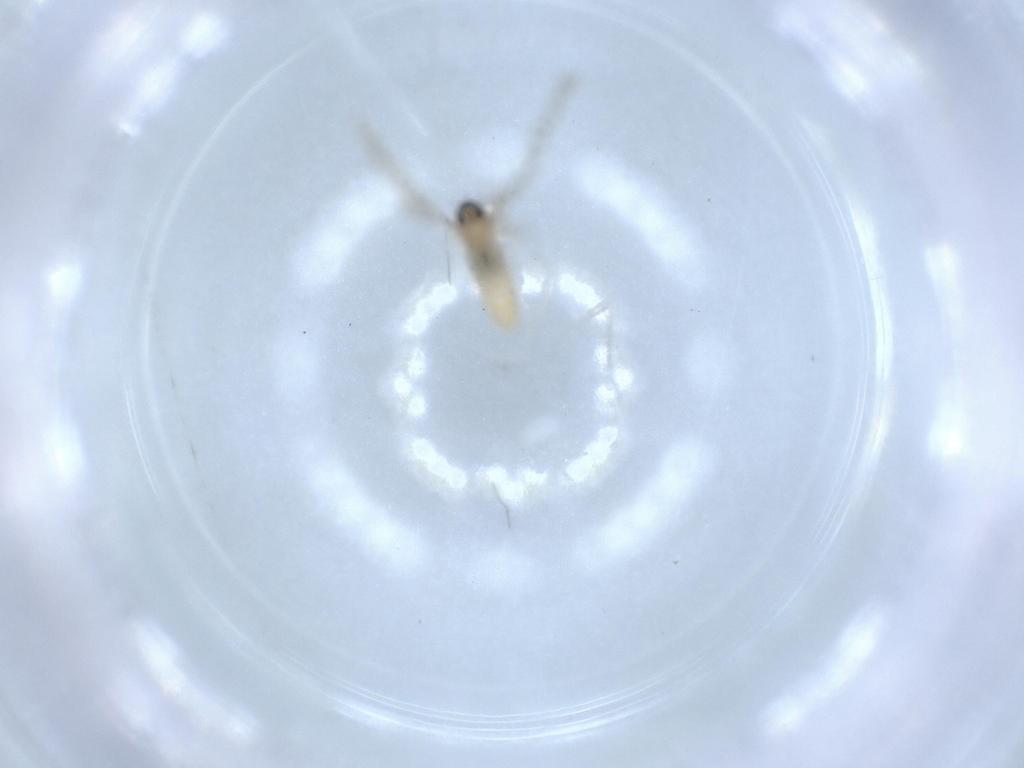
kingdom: Animalia
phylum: Arthropoda
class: Insecta
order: Diptera
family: Cecidomyiidae
